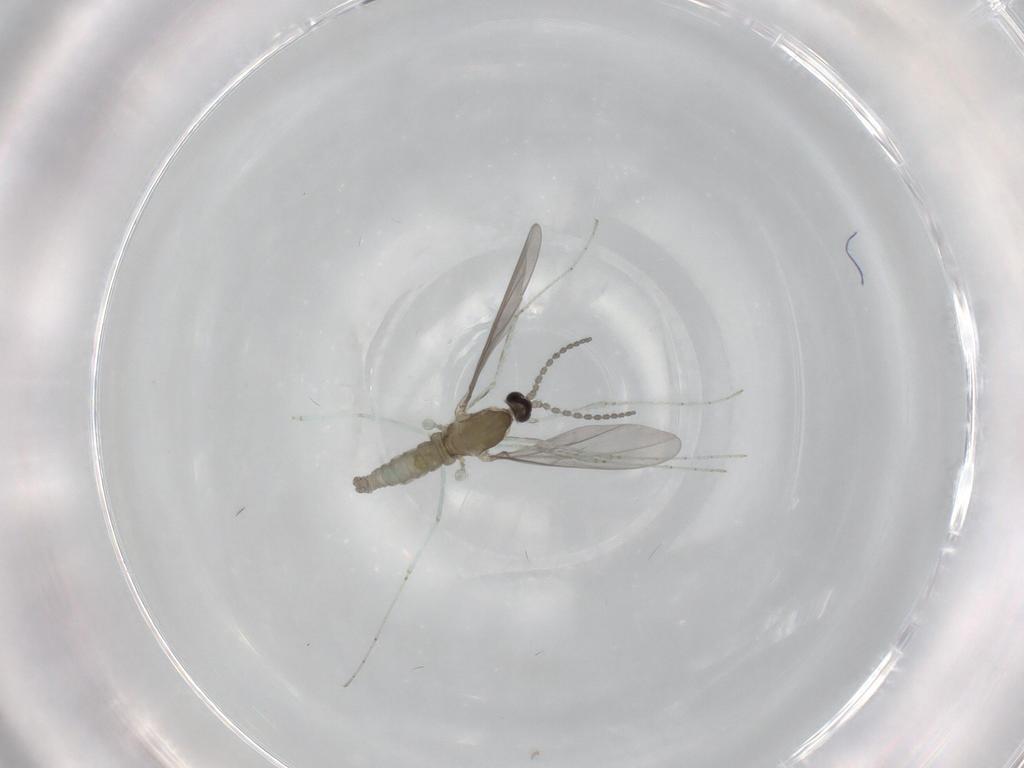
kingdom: Animalia
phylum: Arthropoda
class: Insecta
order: Diptera
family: Cecidomyiidae
